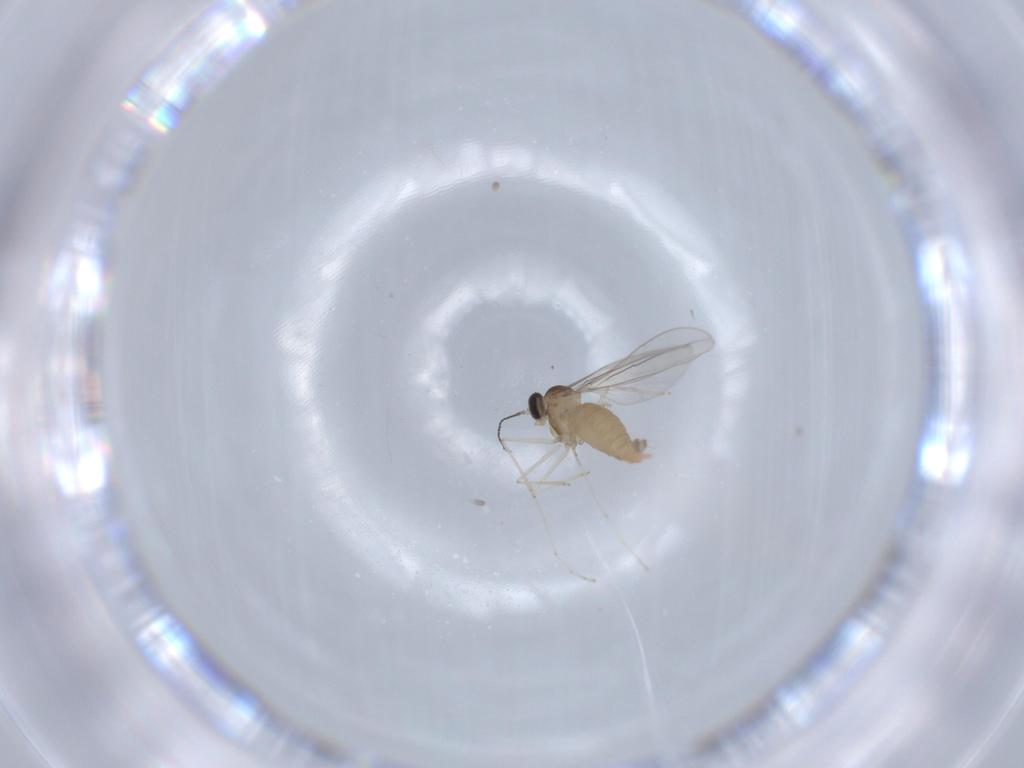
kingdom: Animalia
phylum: Arthropoda
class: Insecta
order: Diptera
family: Cecidomyiidae
